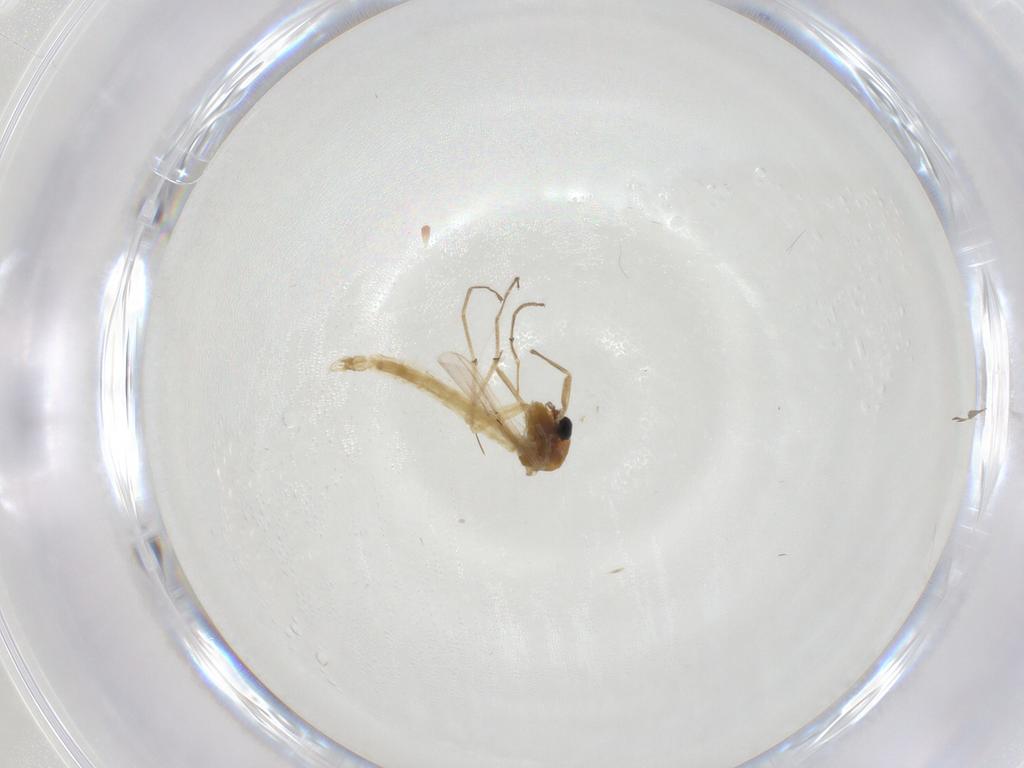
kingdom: Animalia
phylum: Arthropoda
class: Insecta
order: Diptera
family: Chironomidae
